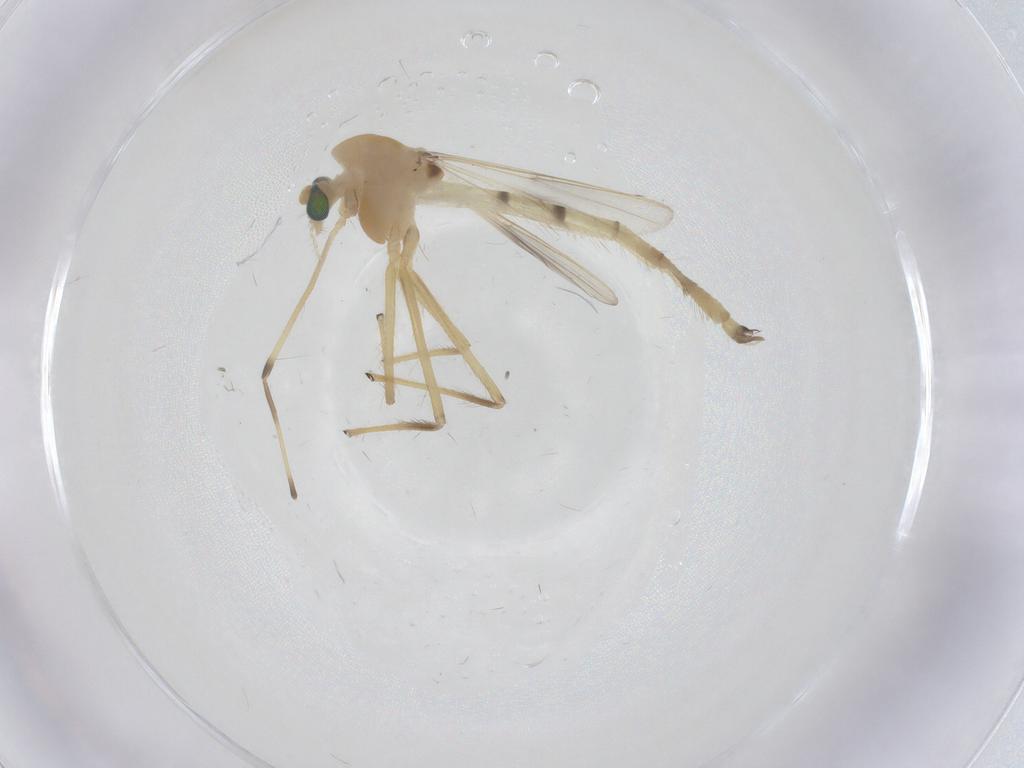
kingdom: Animalia
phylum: Arthropoda
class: Insecta
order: Diptera
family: Chironomidae
